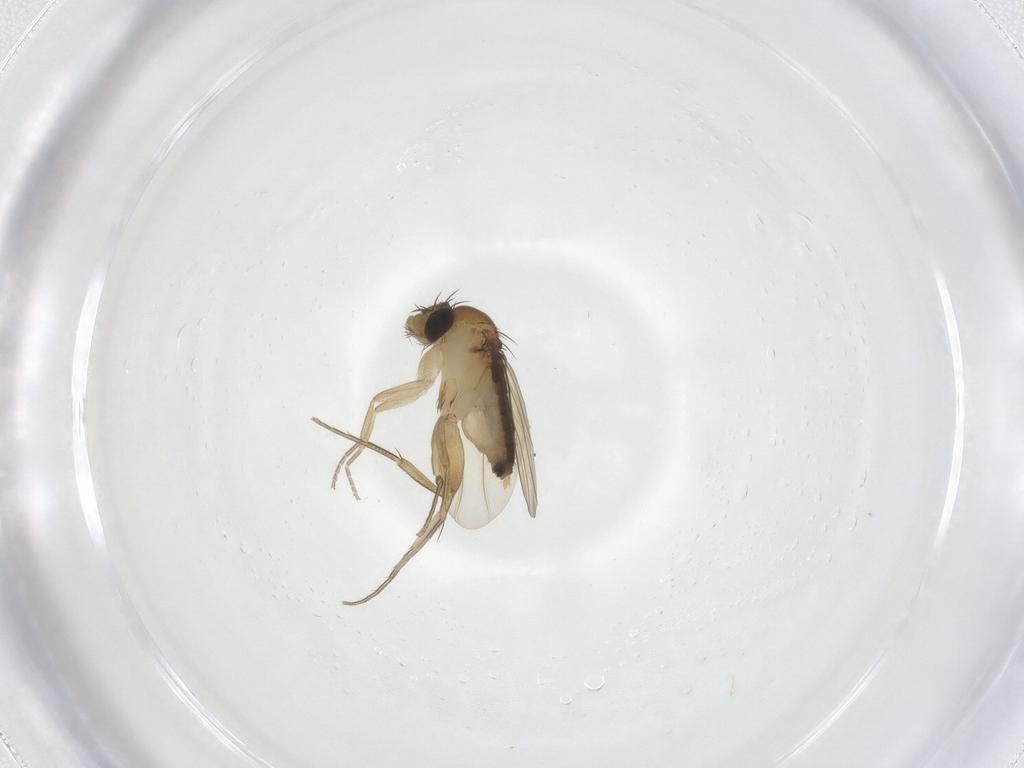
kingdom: Animalia
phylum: Arthropoda
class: Insecta
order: Diptera
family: Phoridae
